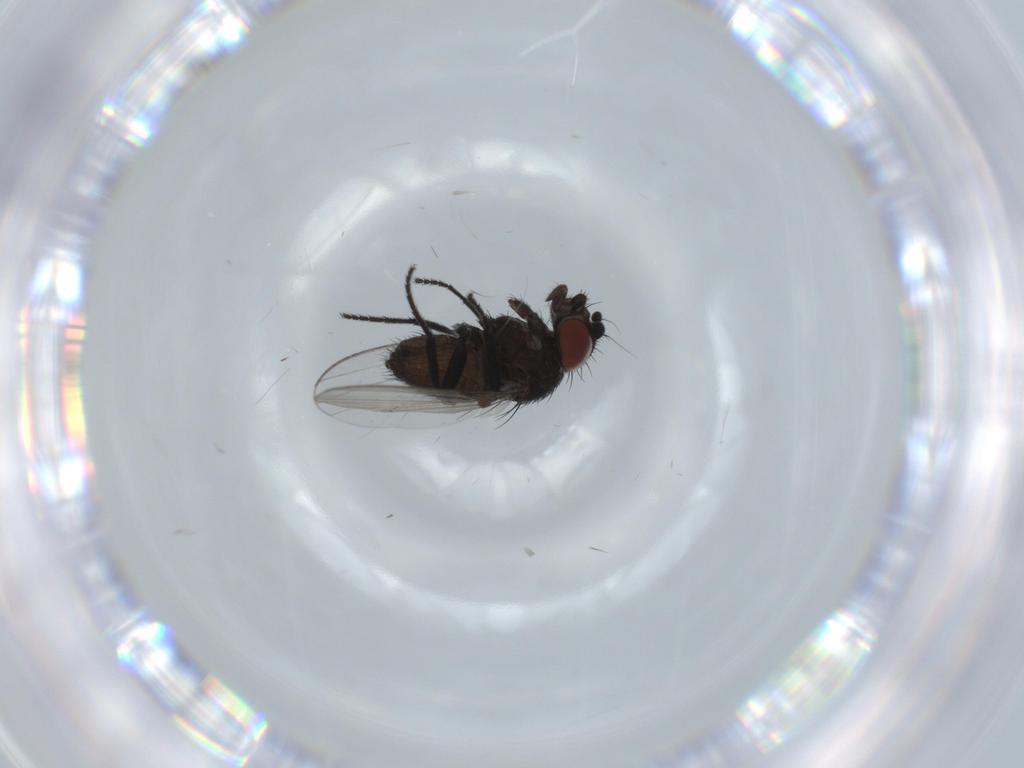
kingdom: Animalia
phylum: Arthropoda
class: Insecta
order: Diptera
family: Milichiidae
